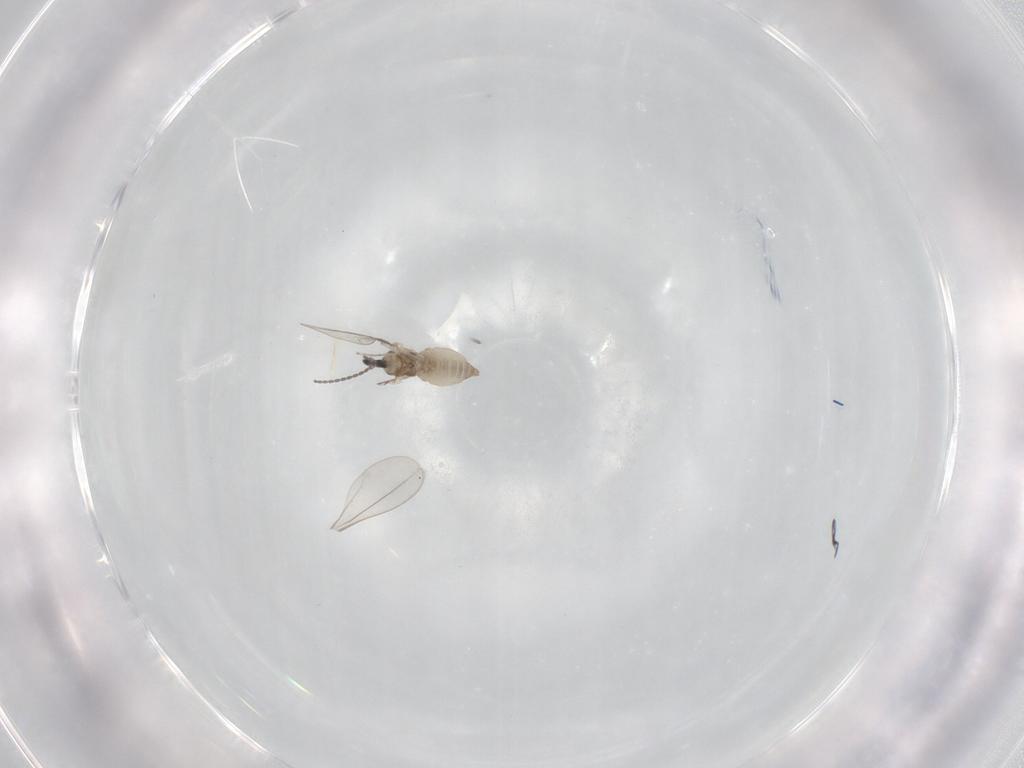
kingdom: Animalia
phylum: Arthropoda
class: Insecta
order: Diptera
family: Cecidomyiidae
